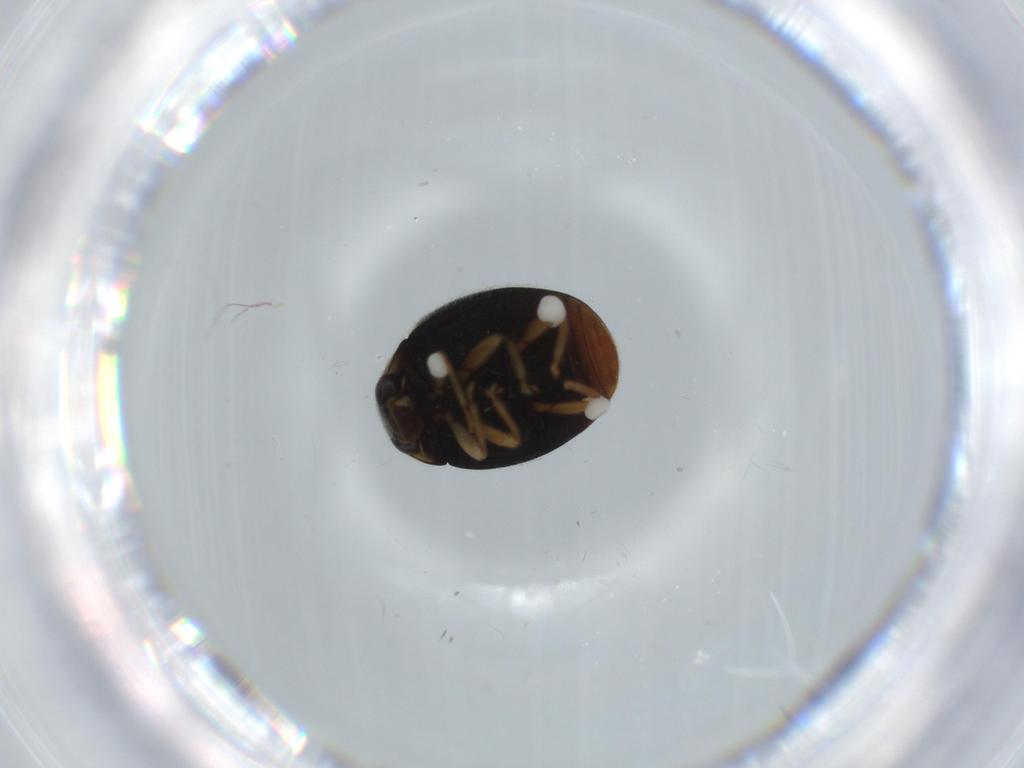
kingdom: Animalia
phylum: Arthropoda
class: Insecta
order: Coleoptera
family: Coccinellidae
